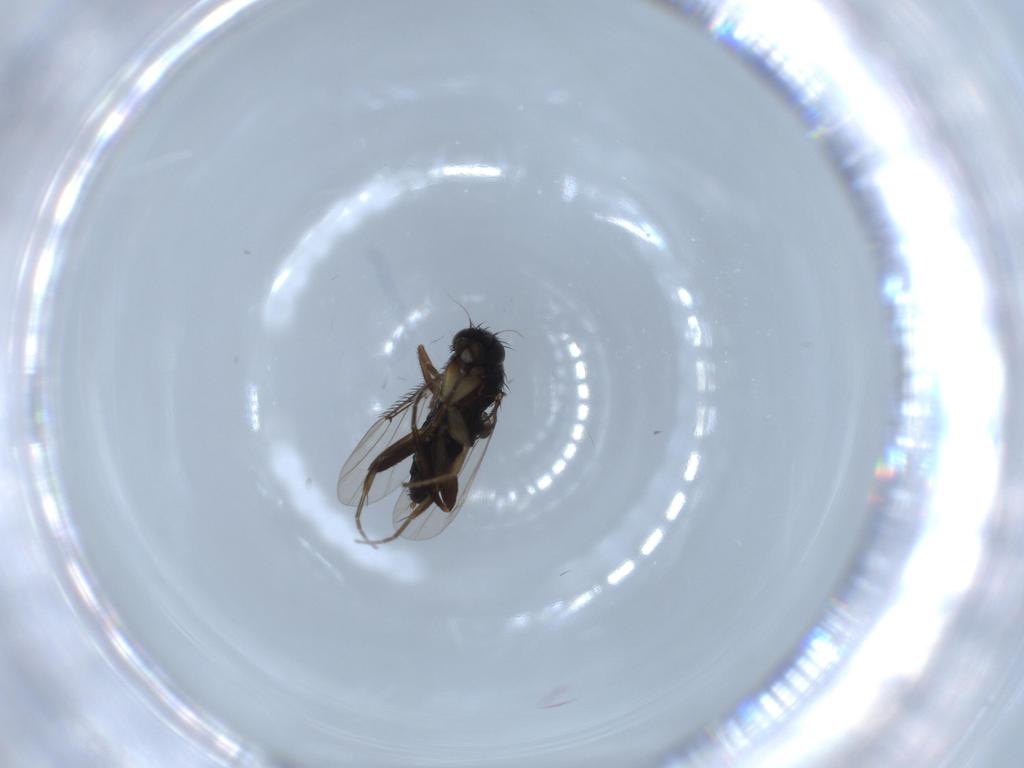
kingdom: Animalia
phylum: Arthropoda
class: Insecta
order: Diptera
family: Phoridae
